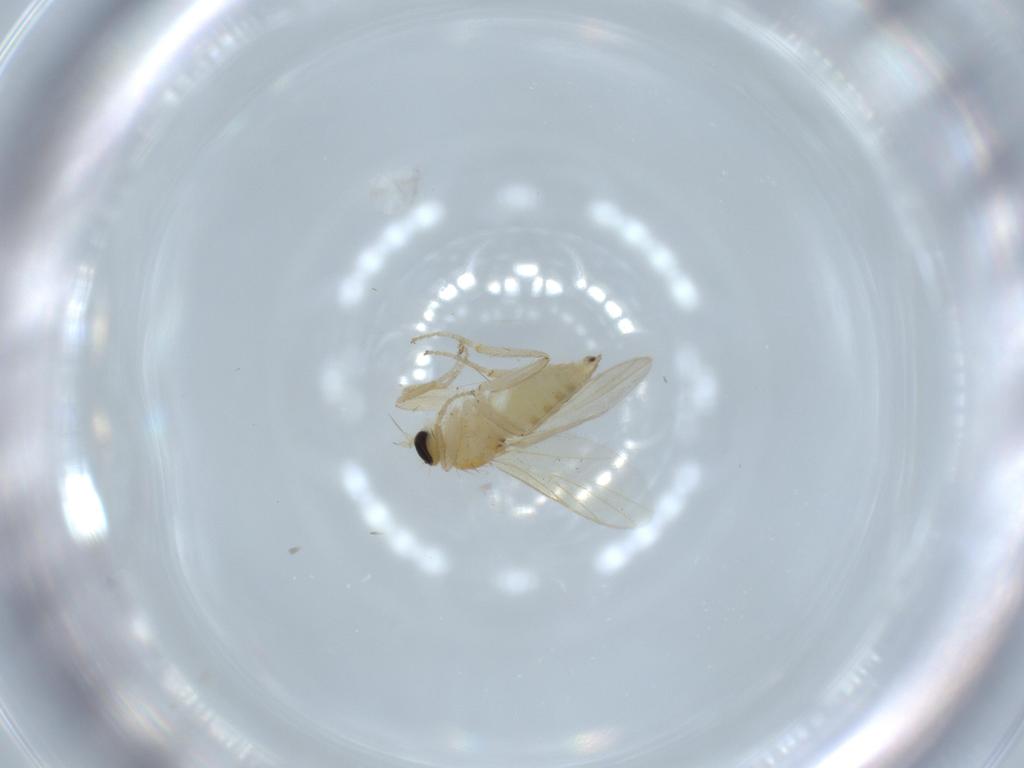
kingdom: Animalia
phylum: Arthropoda
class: Insecta
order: Diptera
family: Hybotidae
